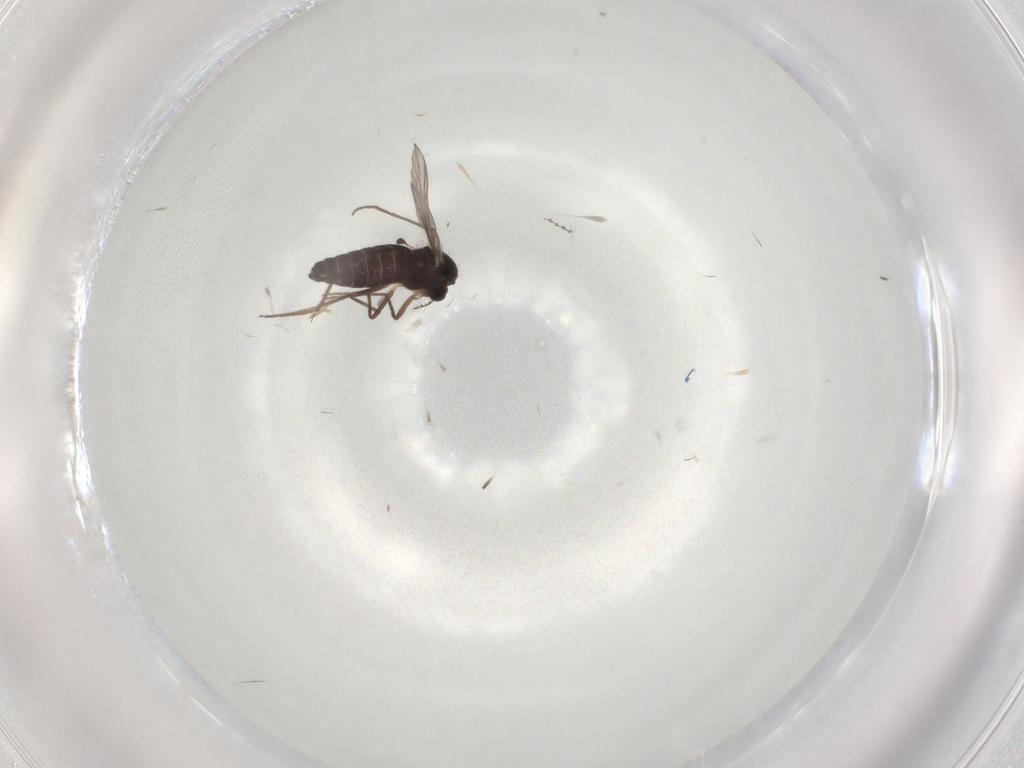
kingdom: Animalia
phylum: Arthropoda
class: Insecta
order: Diptera
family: Chironomidae
